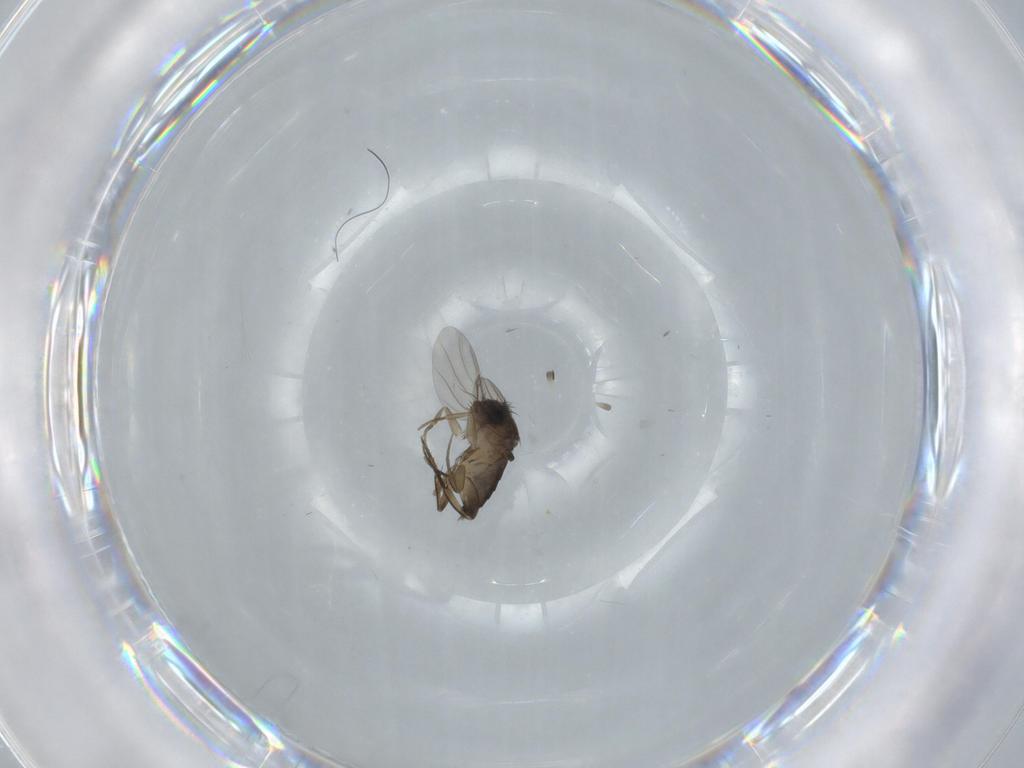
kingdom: Animalia
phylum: Arthropoda
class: Insecta
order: Diptera
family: Phoridae
